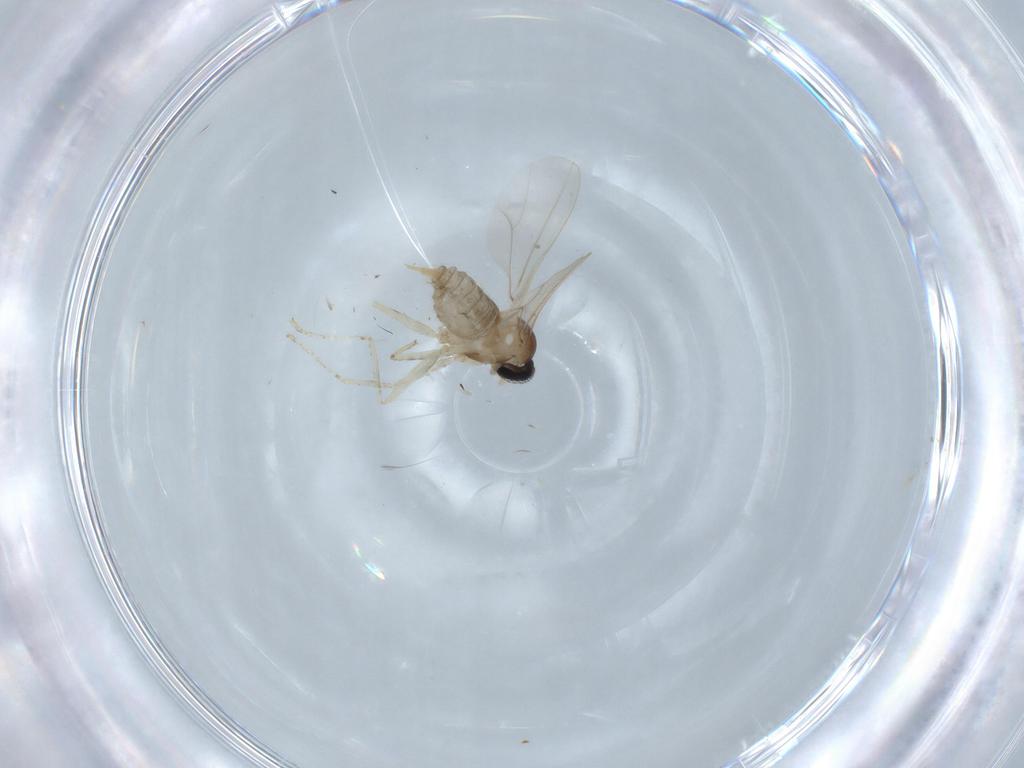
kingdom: Animalia
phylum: Arthropoda
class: Insecta
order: Diptera
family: Cecidomyiidae
